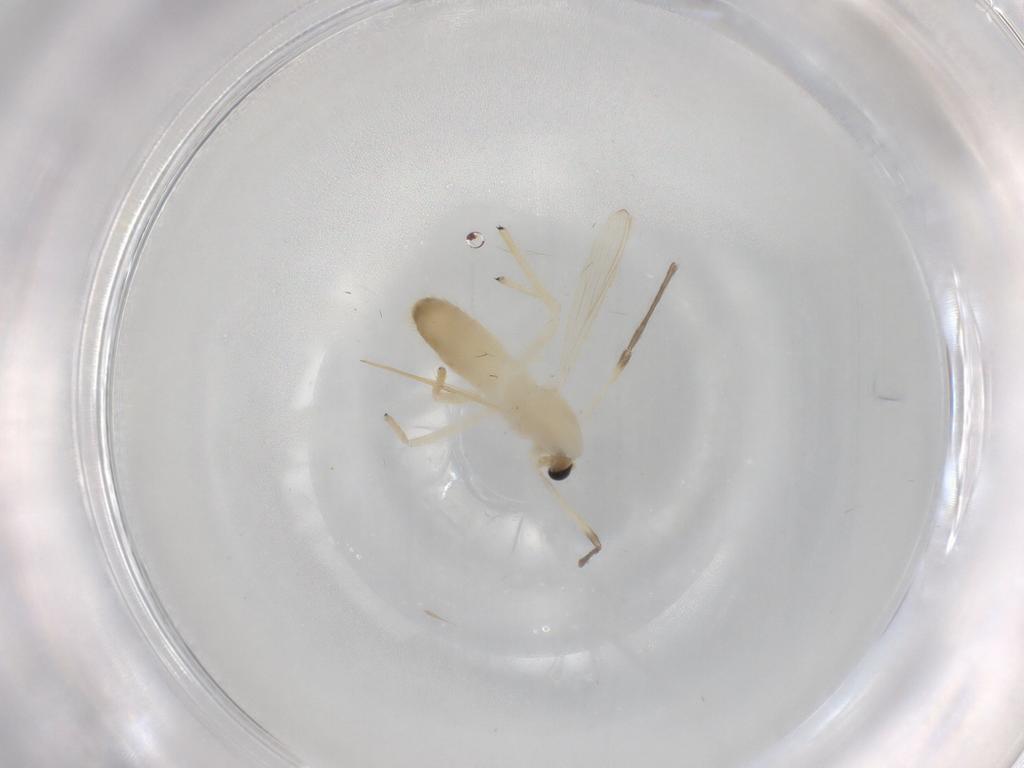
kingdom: Animalia
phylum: Arthropoda
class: Insecta
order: Diptera
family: Chironomidae
